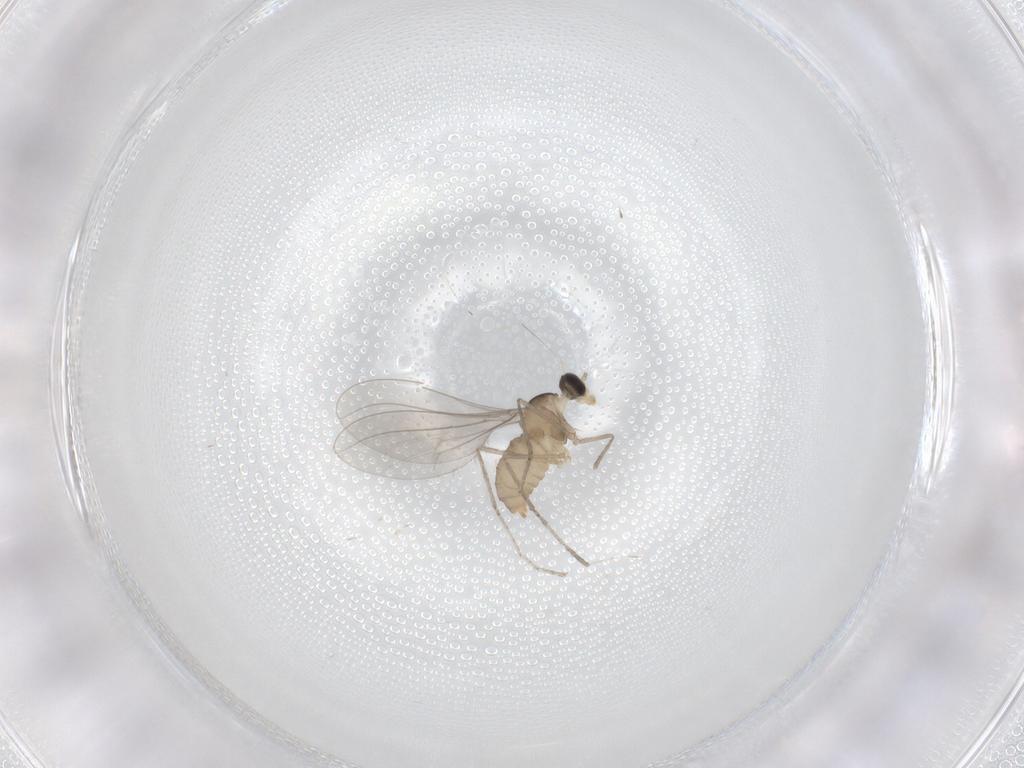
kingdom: Animalia
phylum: Arthropoda
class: Insecta
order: Diptera
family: Cecidomyiidae
